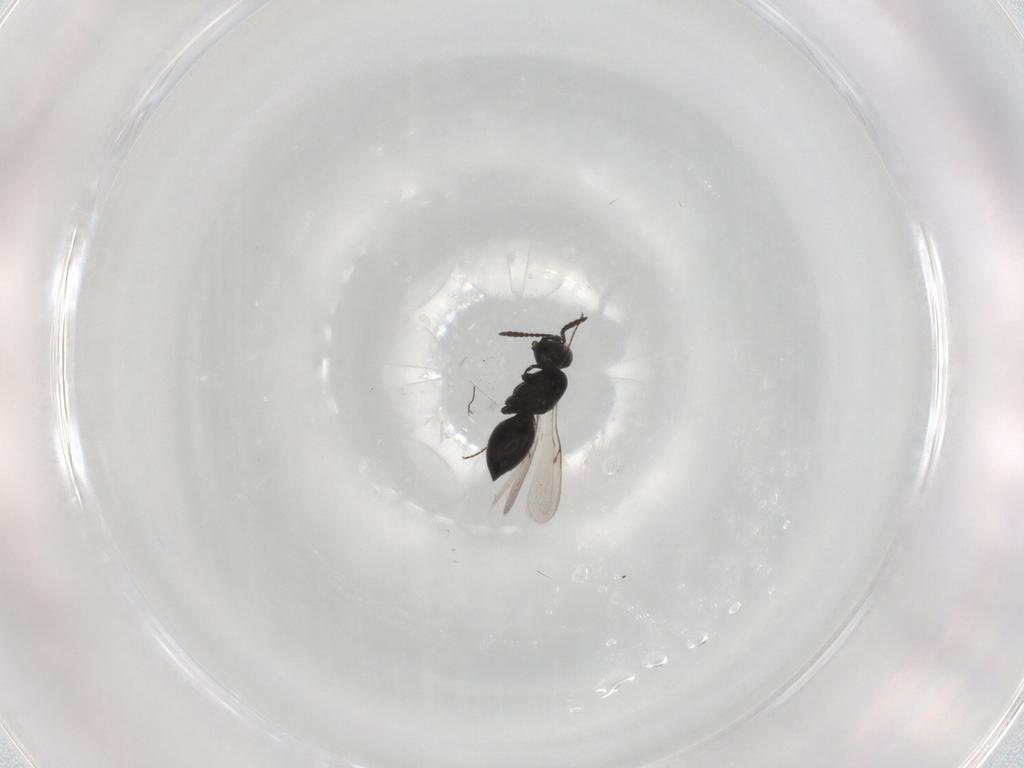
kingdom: Animalia
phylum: Arthropoda
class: Insecta
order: Hymenoptera
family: Scelionidae
